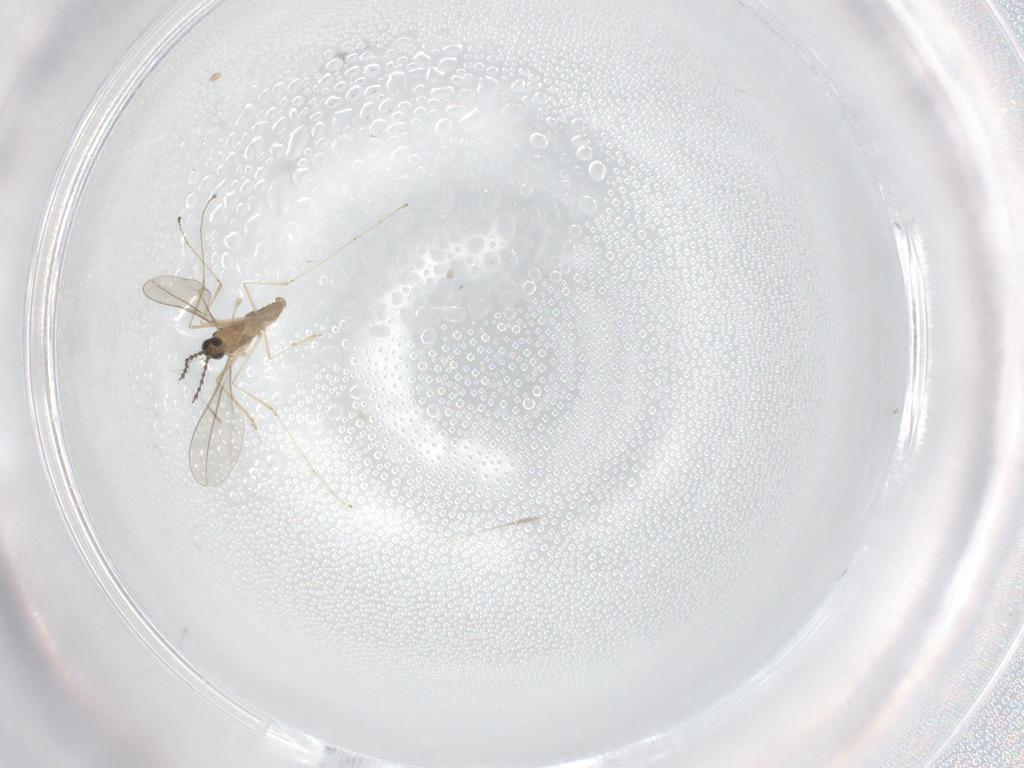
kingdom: Animalia
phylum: Arthropoda
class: Insecta
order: Diptera
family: Cecidomyiidae
